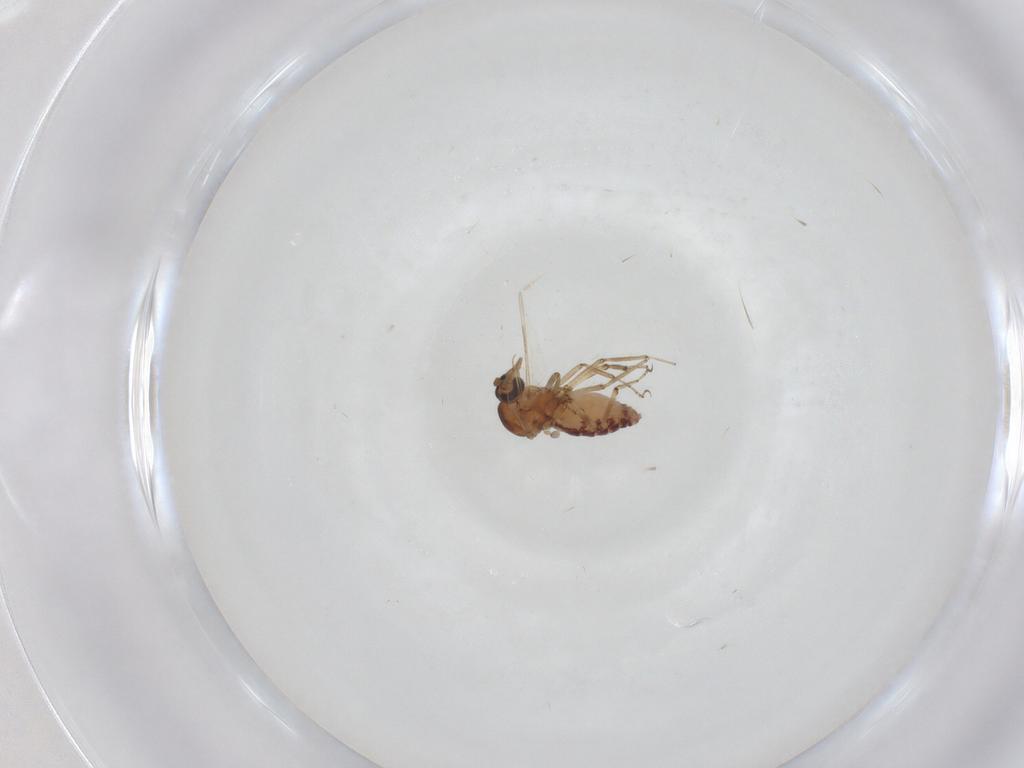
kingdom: Animalia
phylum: Arthropoda
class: Insecta
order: Diptera
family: Ceratopogonidae
